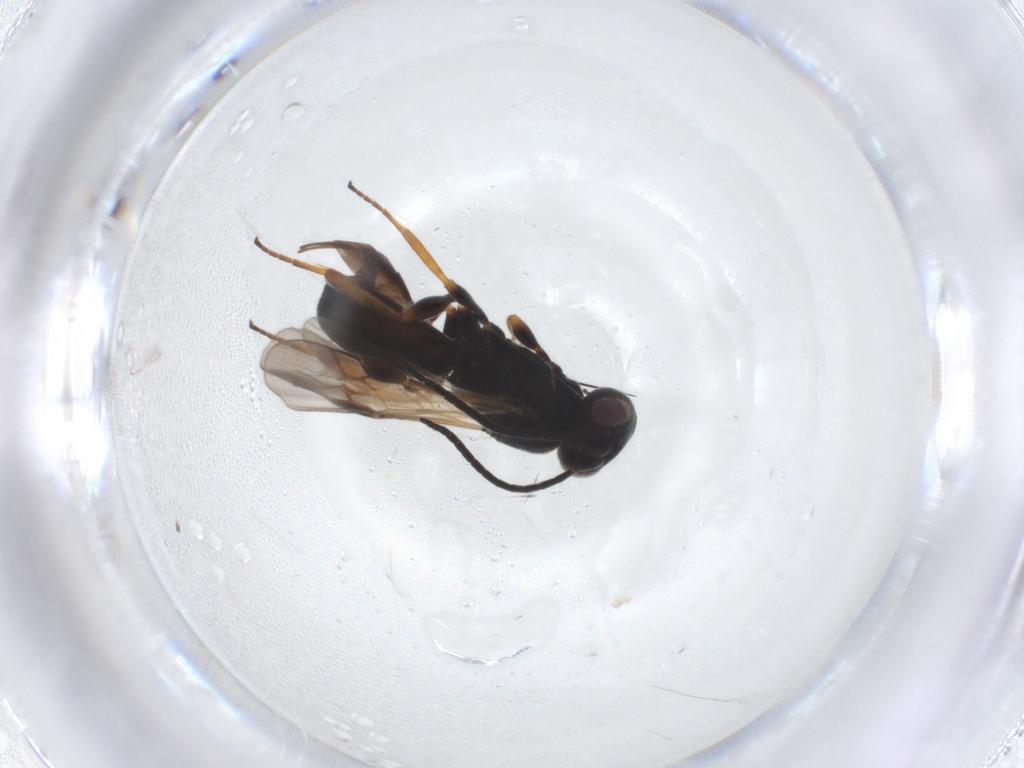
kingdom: Animalia
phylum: Arthropoda
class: Insecta
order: Hymenoptera
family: Braconidae
